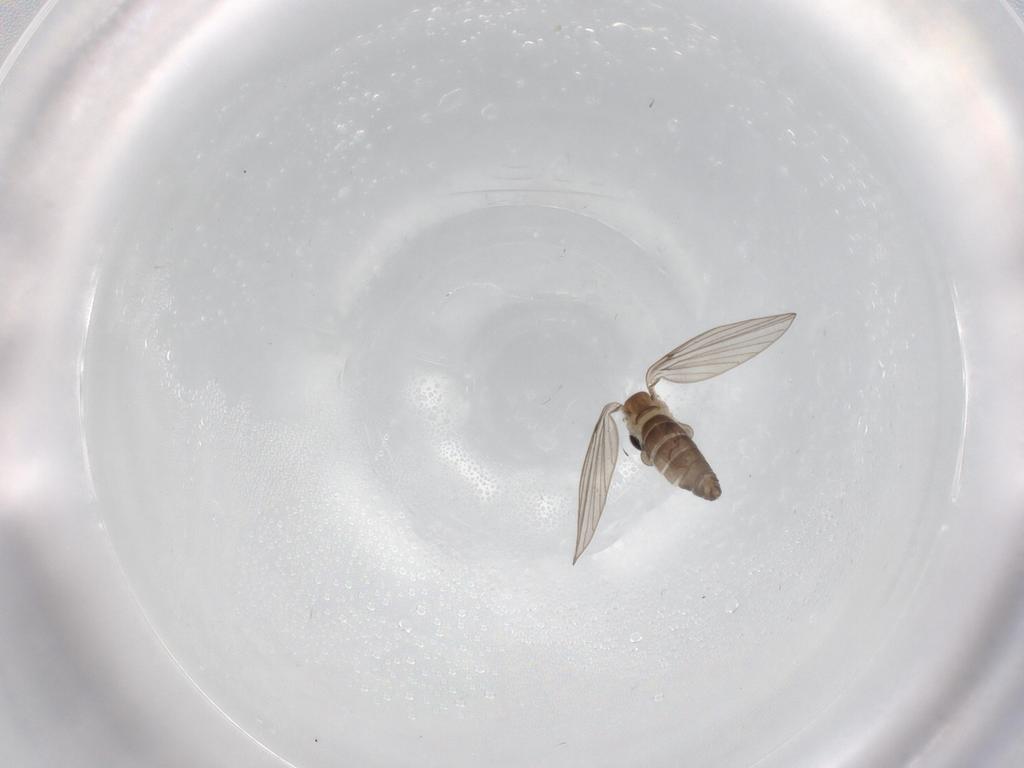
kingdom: Animalia
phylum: Arthropoda
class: Insecta
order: Diptera
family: Psychodidae
